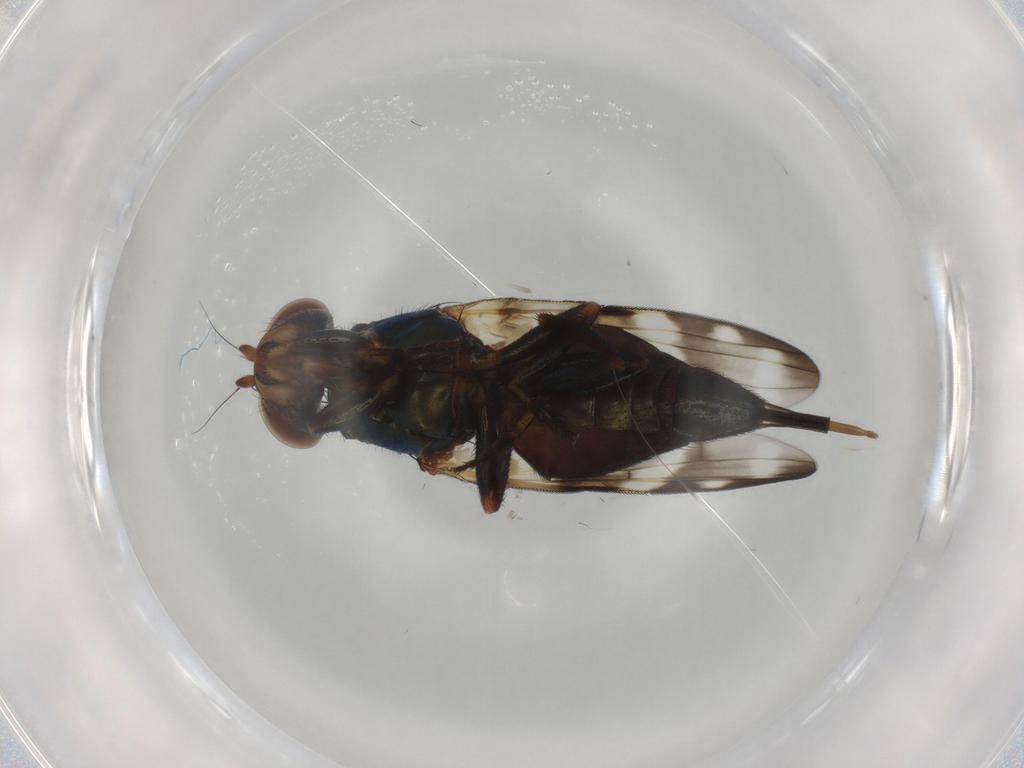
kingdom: Animalia
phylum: Arthropoda
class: Insecta
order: Diptera
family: Ulidiidae
